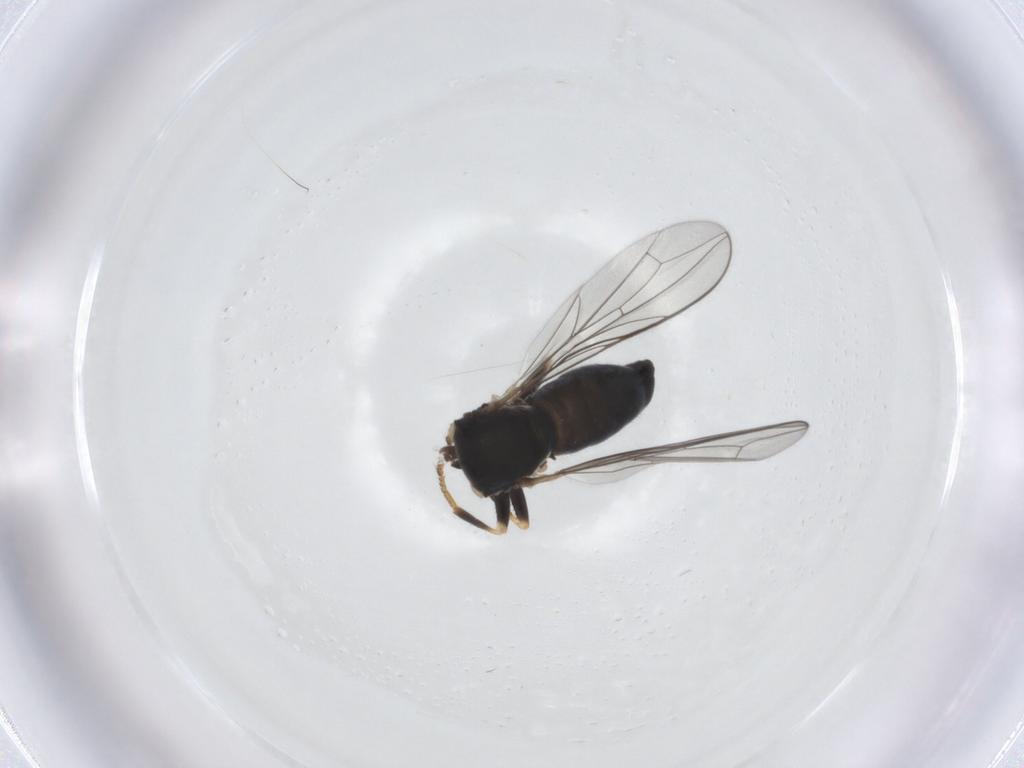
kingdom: Animalia
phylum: Arthropoda
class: Insecta
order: Diptera
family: Pipunculidae
